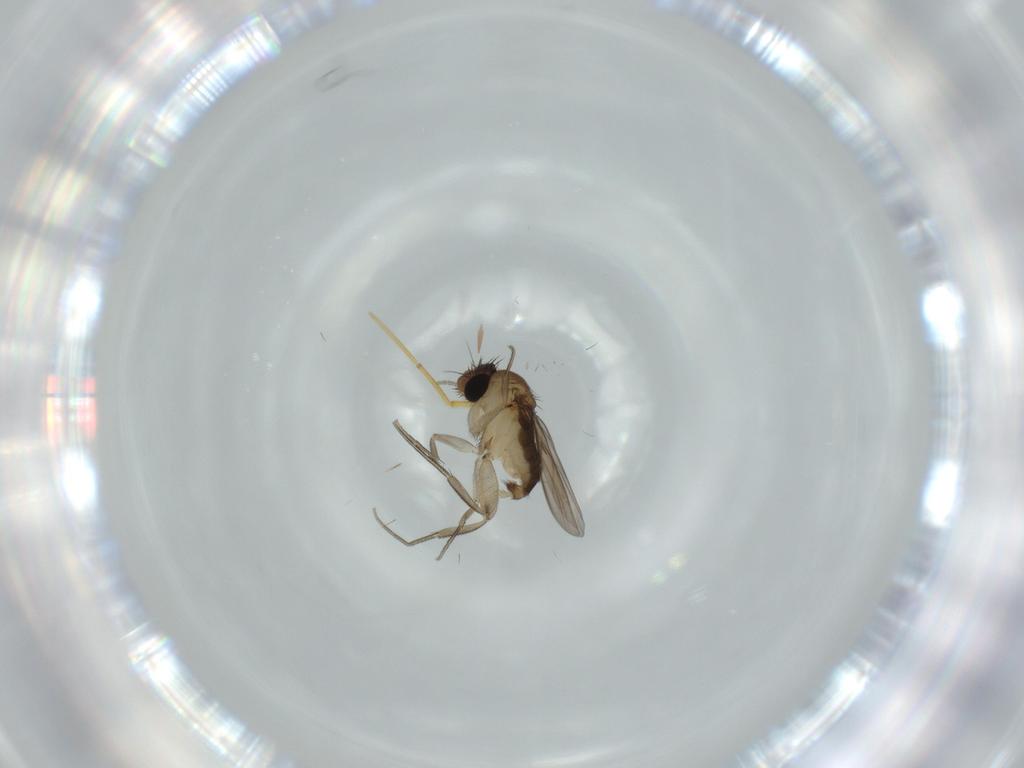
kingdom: Animalia
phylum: Arthropoda
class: Insecta
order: Diptera
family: Phoridae
